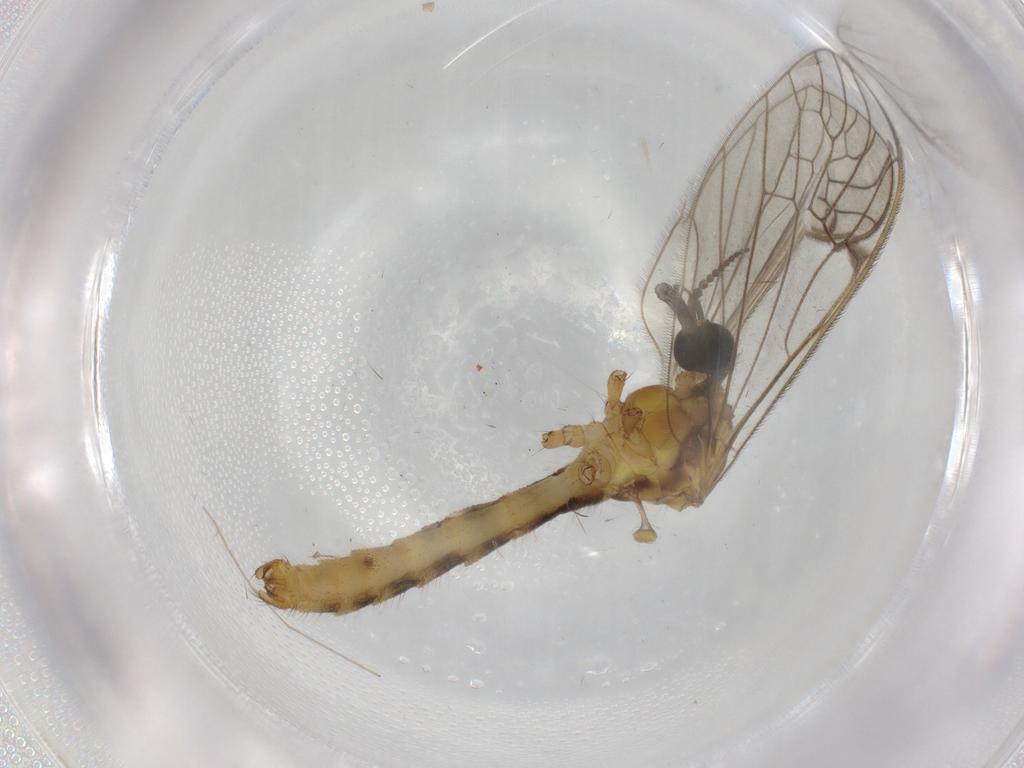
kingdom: Animalia
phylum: Arthropoda
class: Insecta
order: Diptera
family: Limoniidae
